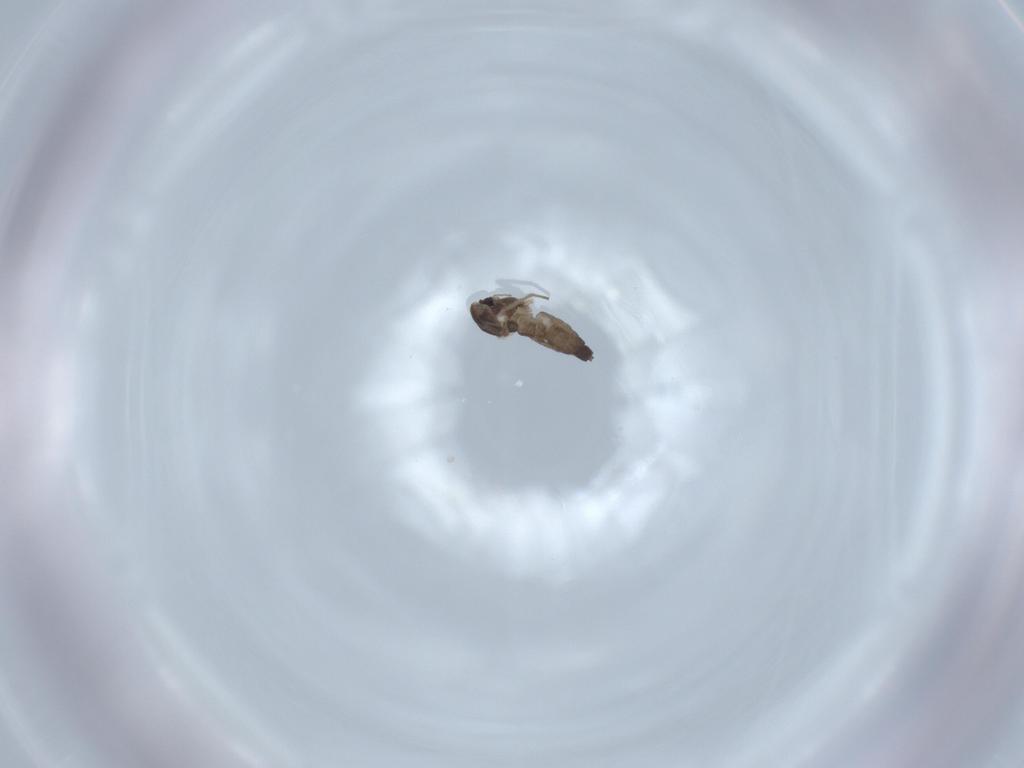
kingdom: Animalia
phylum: Arthropoda
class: Insecta
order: Diptera
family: Chironomidae
